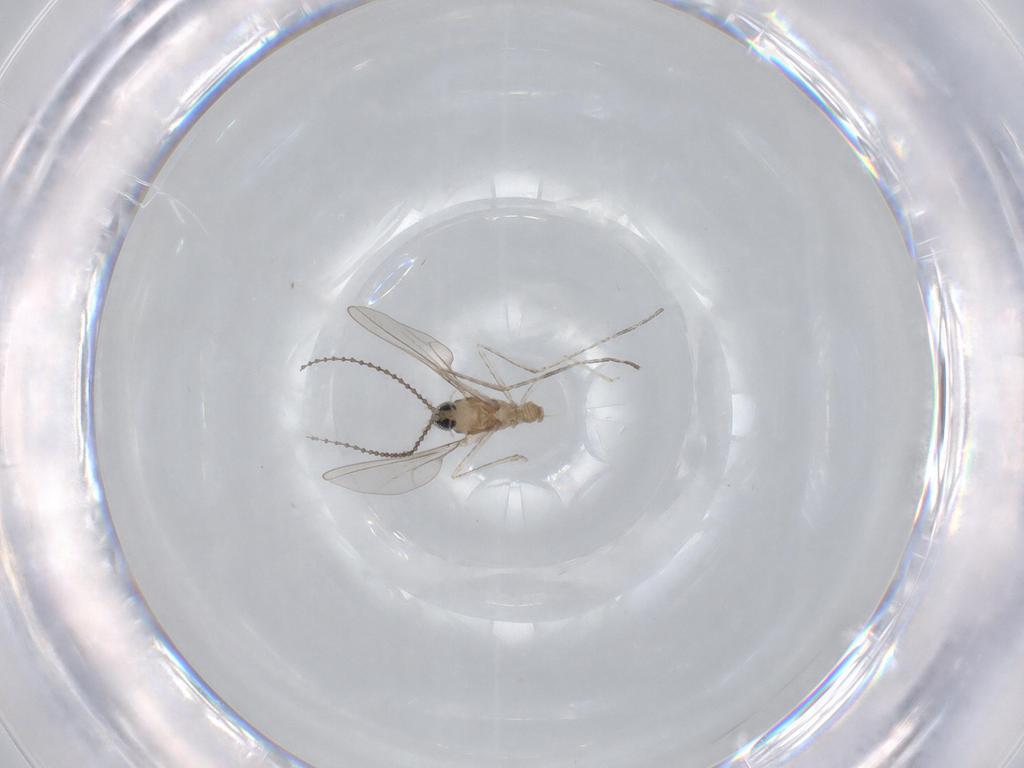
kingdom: Animalia
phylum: Arthropoda
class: Insecta
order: Diptera
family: Cecidomyiidae
